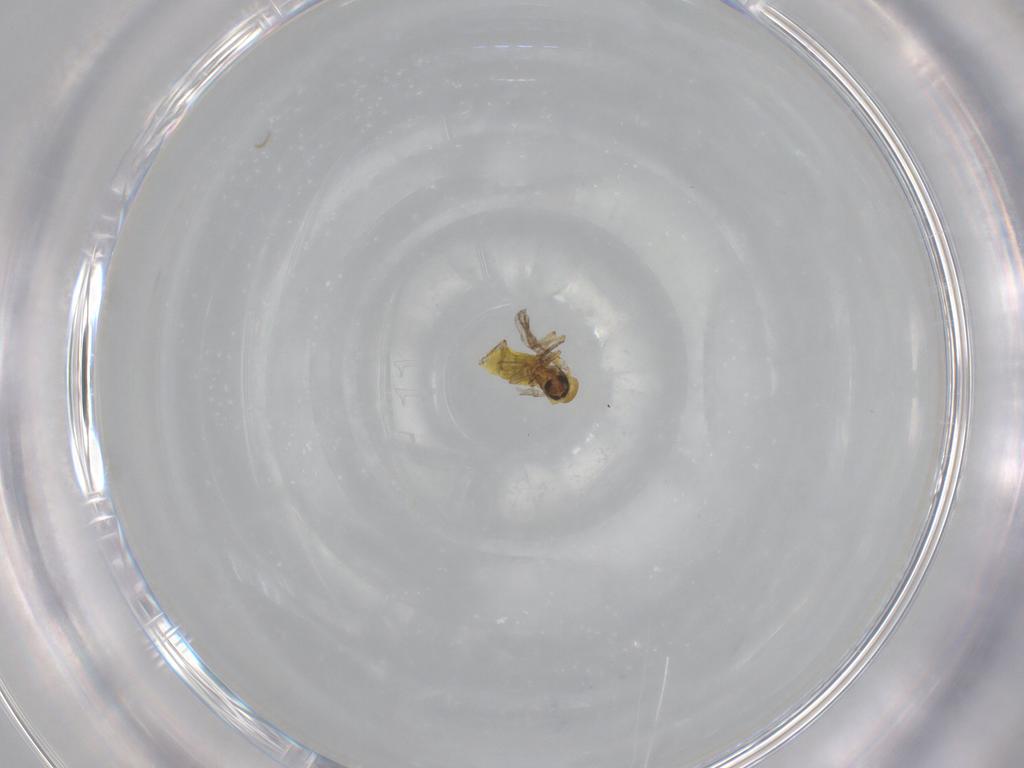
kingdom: Animalia
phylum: Arthropoda
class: Insecta
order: Diptera
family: Ceratopogonidae
